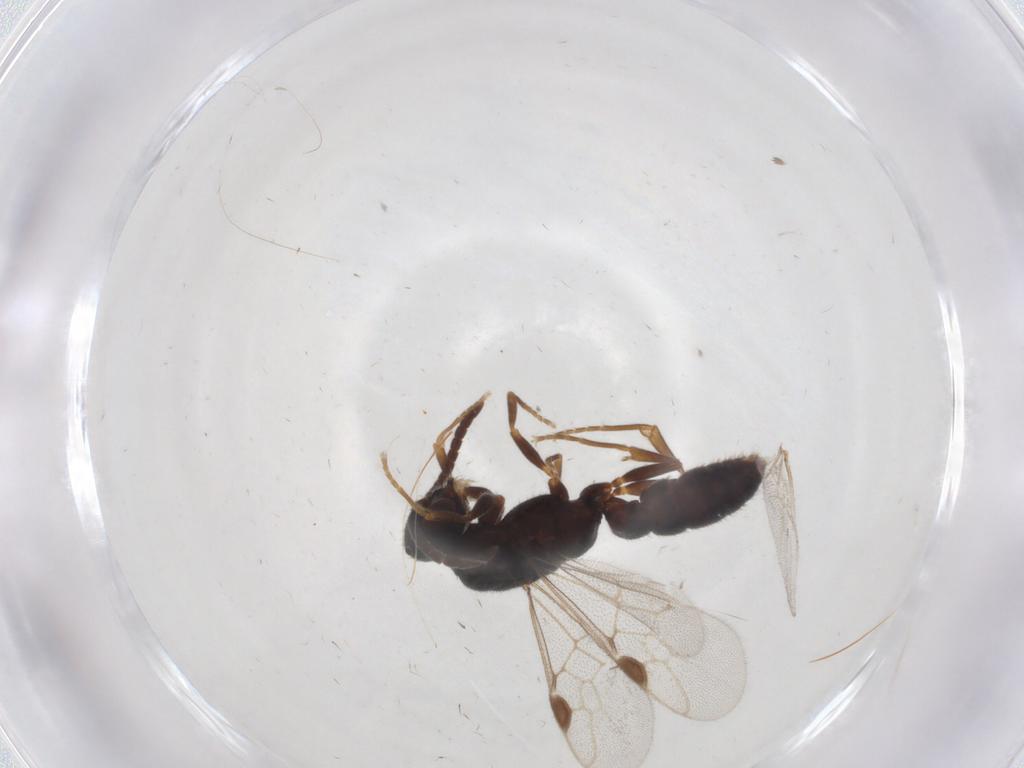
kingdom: Animalia
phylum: Arthropoda
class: Insecta
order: Hymenoptera
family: Formicidae
